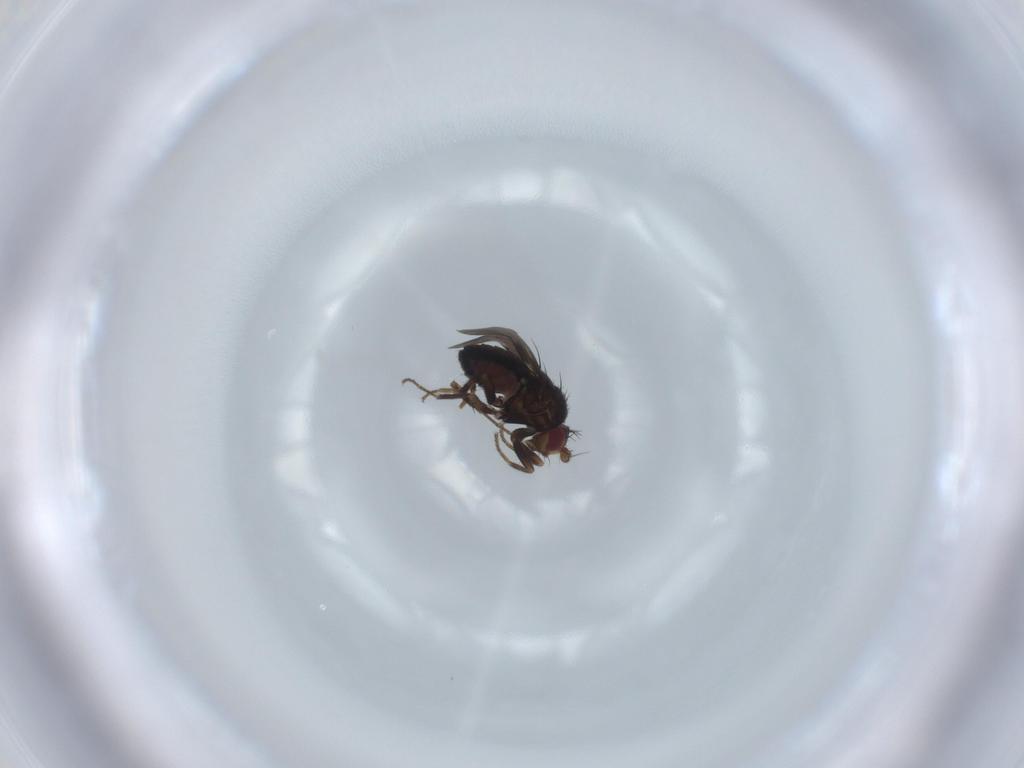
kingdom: Animalia
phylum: Arthropoda
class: Insecta
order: Diptera
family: Sphaeroceridae
